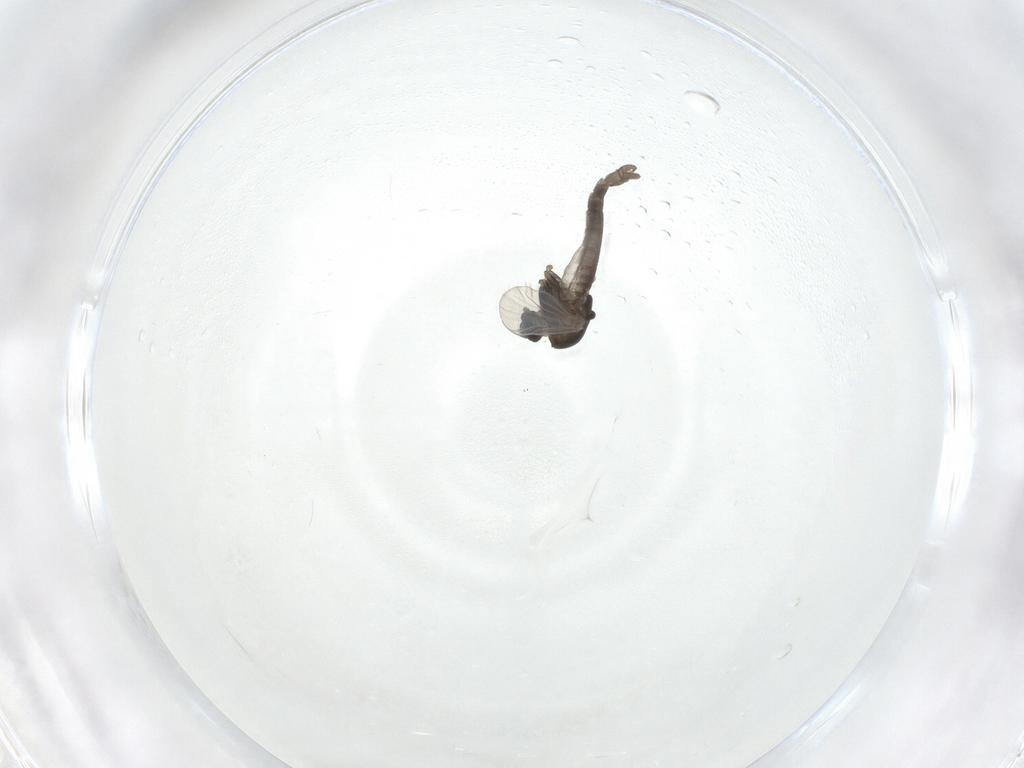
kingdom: Animalia
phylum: Arthropoda
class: Insecta
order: Diptera
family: Chironomidae
